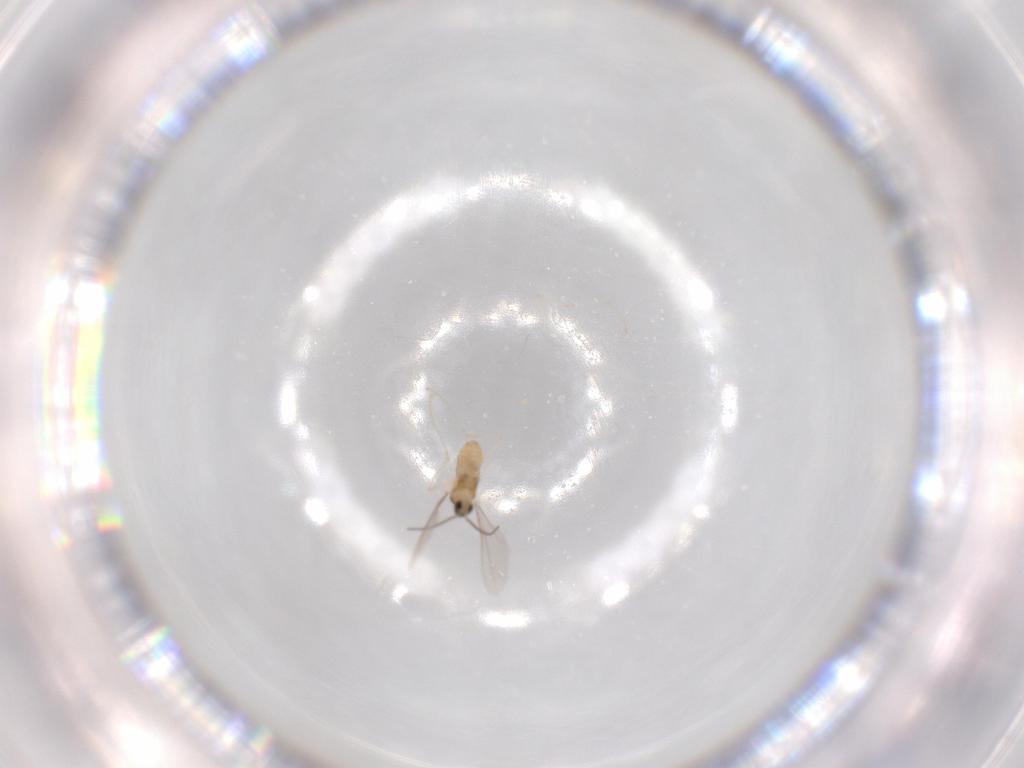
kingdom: Animalia
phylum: Arthropoda
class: Insecta
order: Diptera
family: Cecidomyiidae
